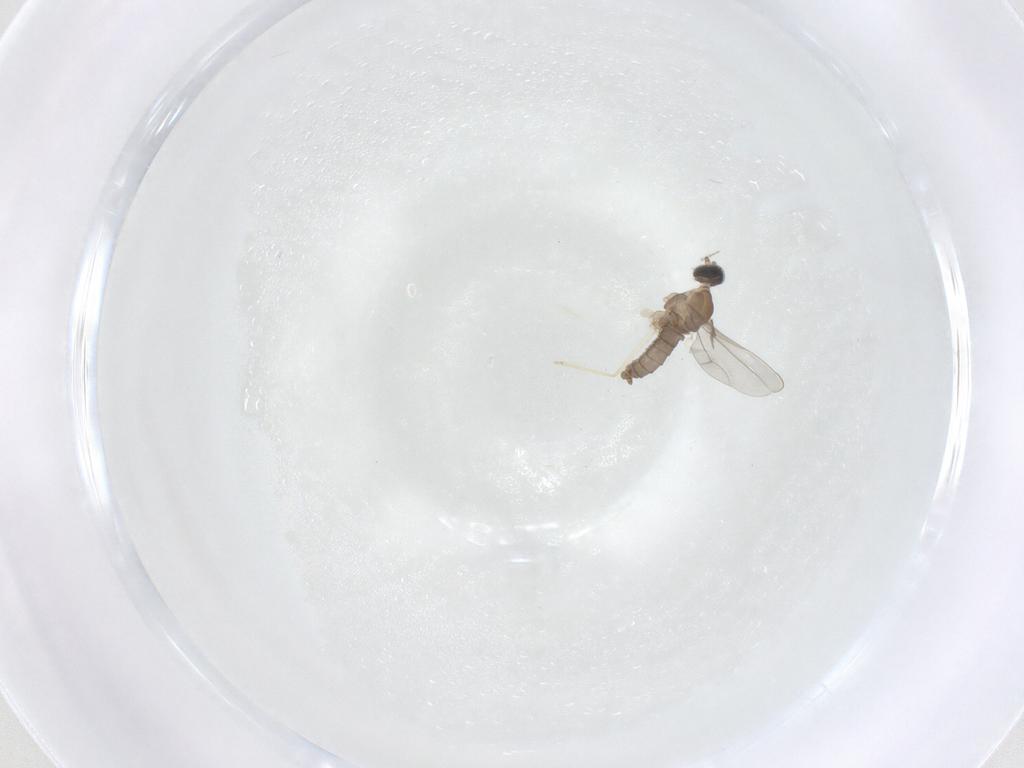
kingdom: Animalia
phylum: Arthropoda
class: Insecta
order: Diptera
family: Cecidomyiidae
